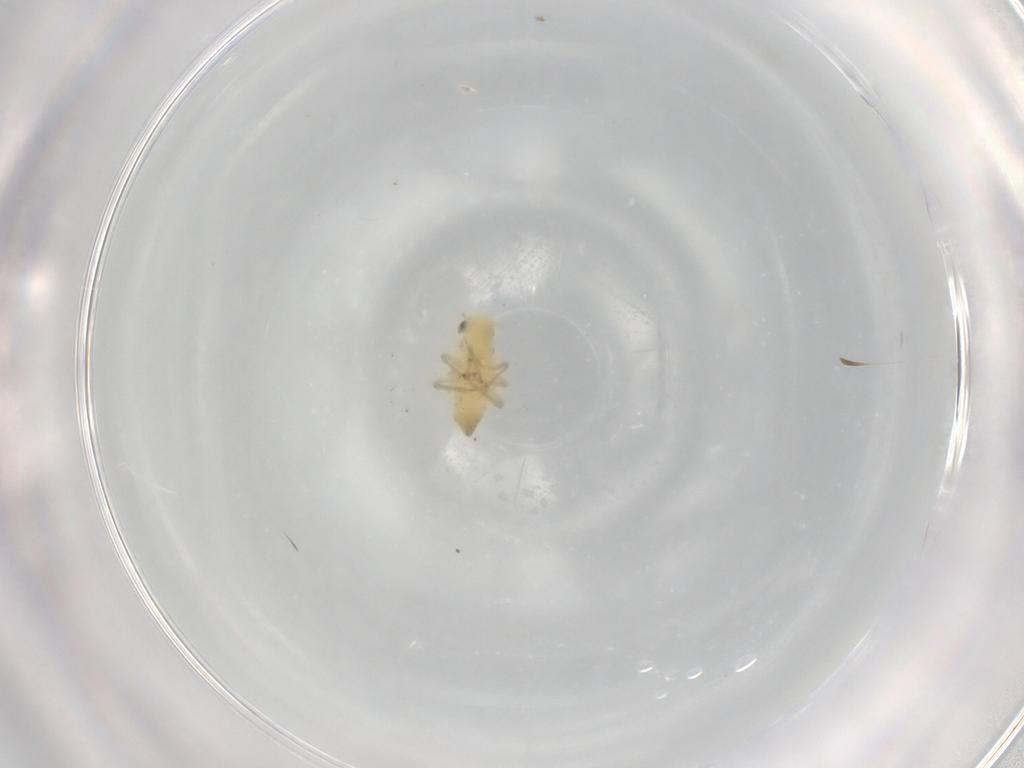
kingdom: Animalia
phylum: Arthropoda
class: Insecta
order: Hemiptera
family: Cicadellidae
